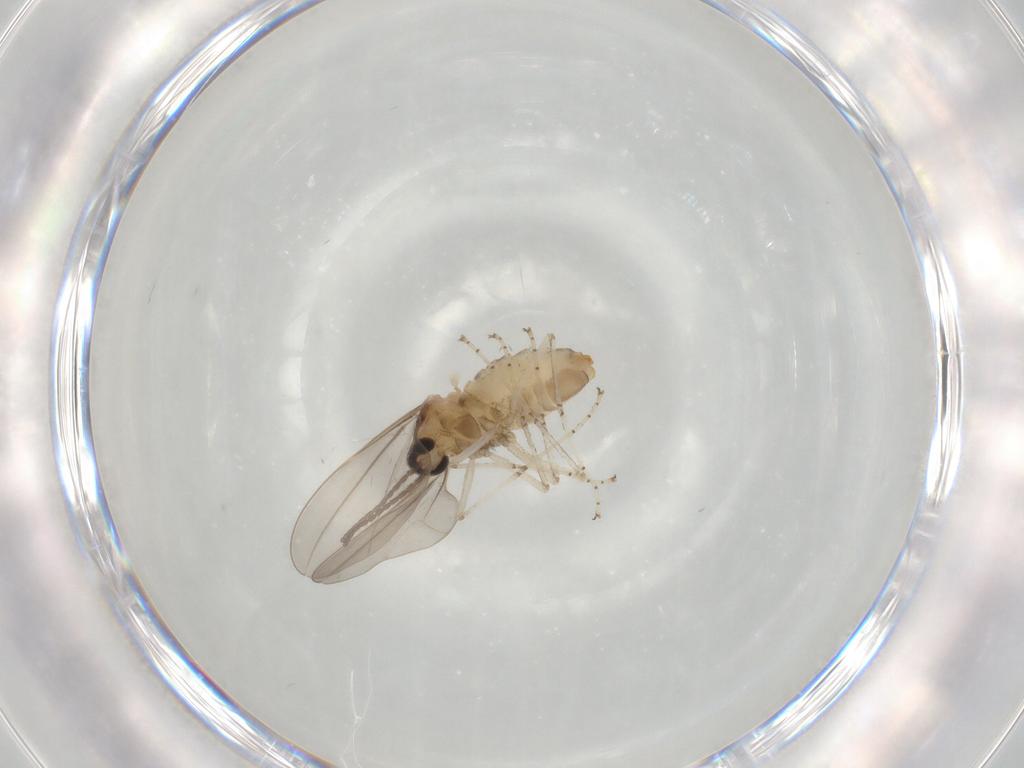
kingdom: Animalia
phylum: Arthropoda
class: Insecta
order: Diptera
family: Cecidomyiidae
